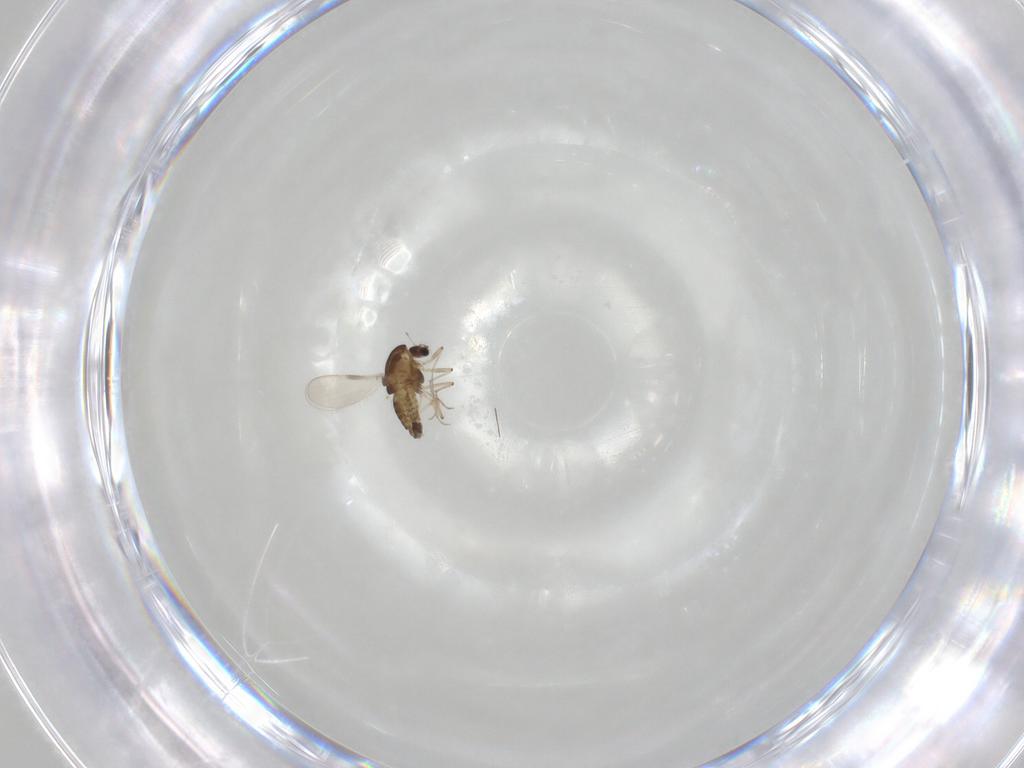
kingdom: Animalia
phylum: Arthropoda
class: Insecta
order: Diptera
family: Chironomidae
